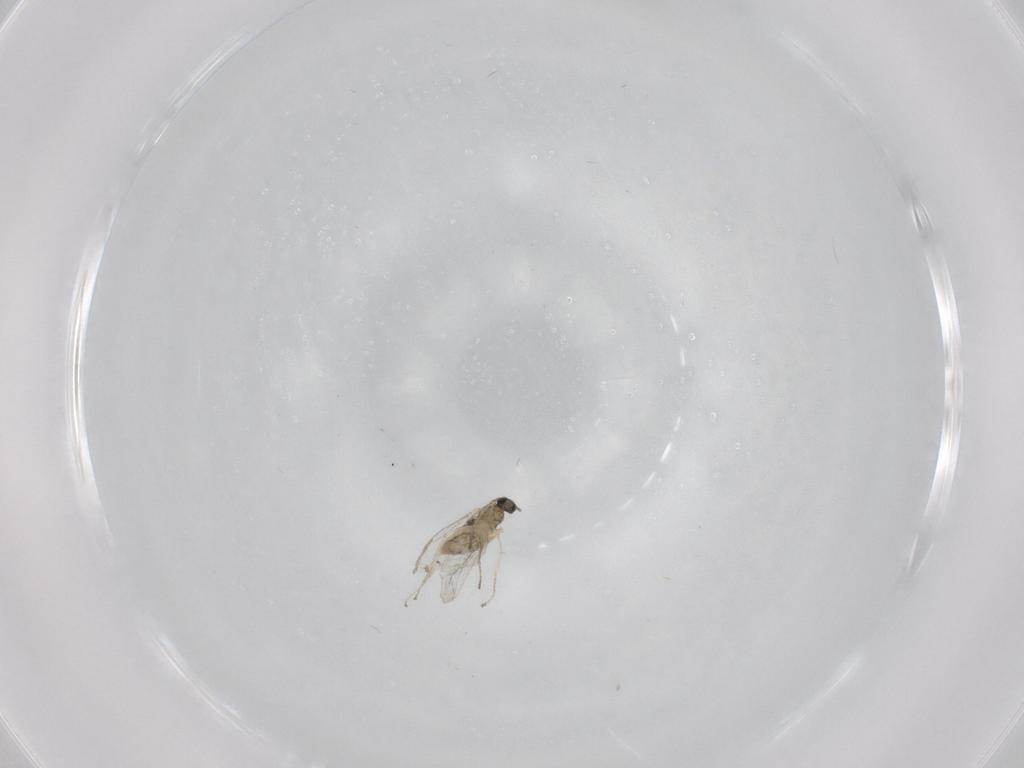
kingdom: Animalia
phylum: Arthropoda
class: Insecta
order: Diptera
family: Cecidomyiidae
